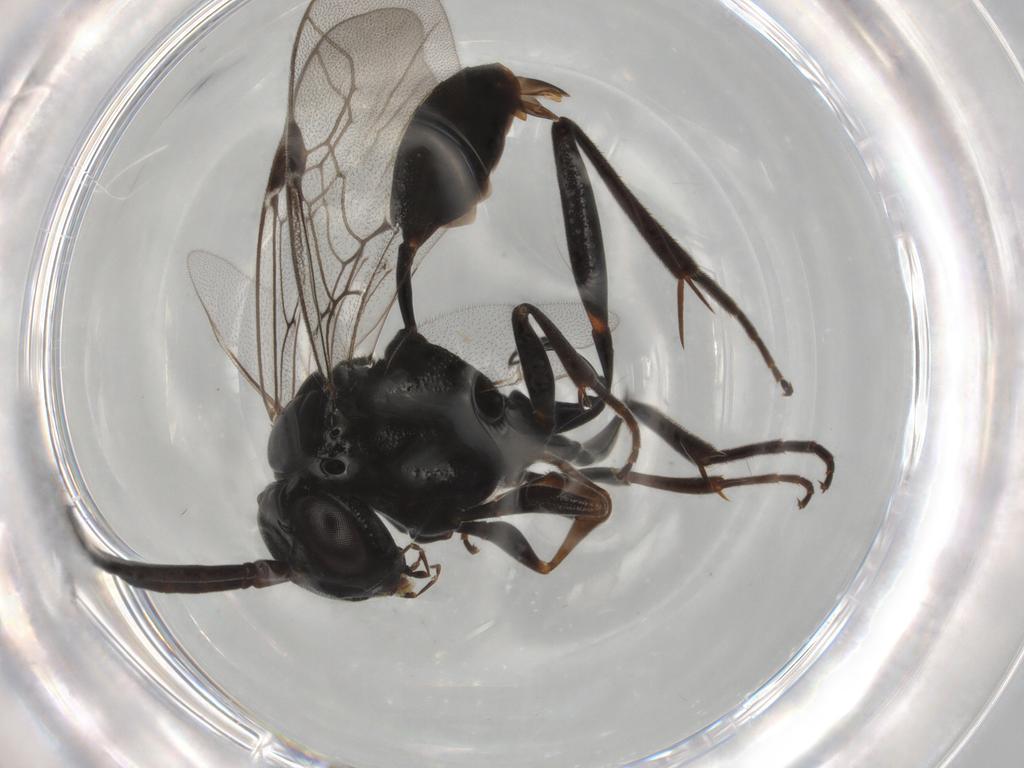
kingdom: Animalia
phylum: Arthropoda
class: Insecta
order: Hymenoptera
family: Evaniidae
